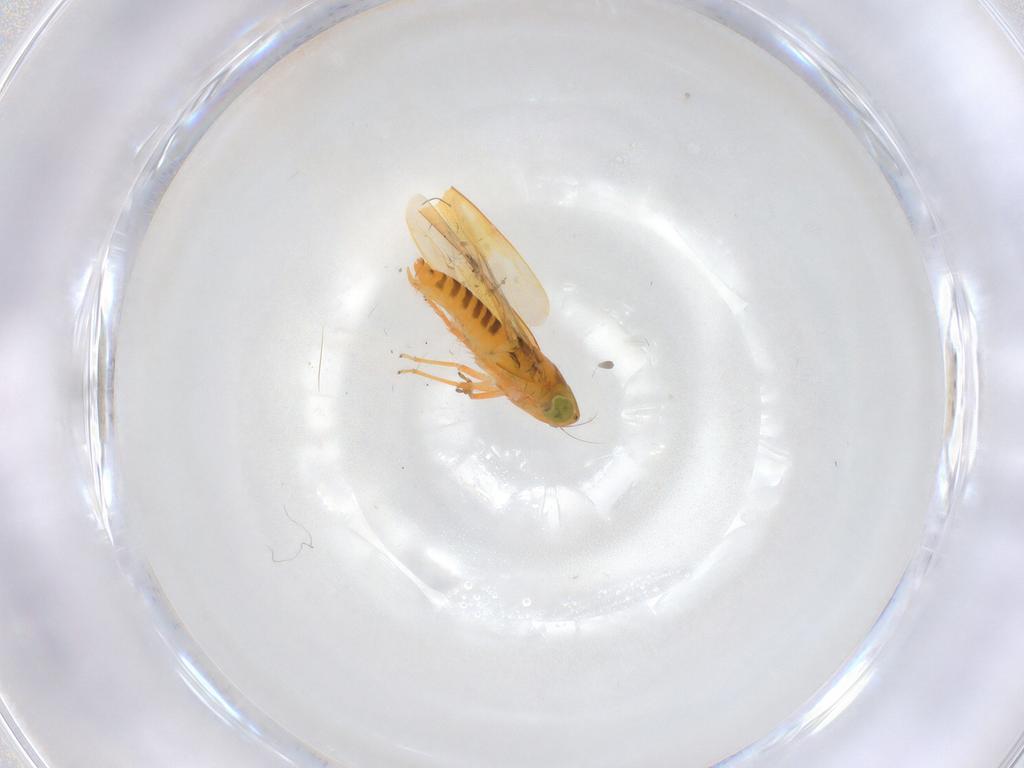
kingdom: Animalia
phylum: Arthropoda
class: Insecta
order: Hemiptera
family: Cicadellidae
